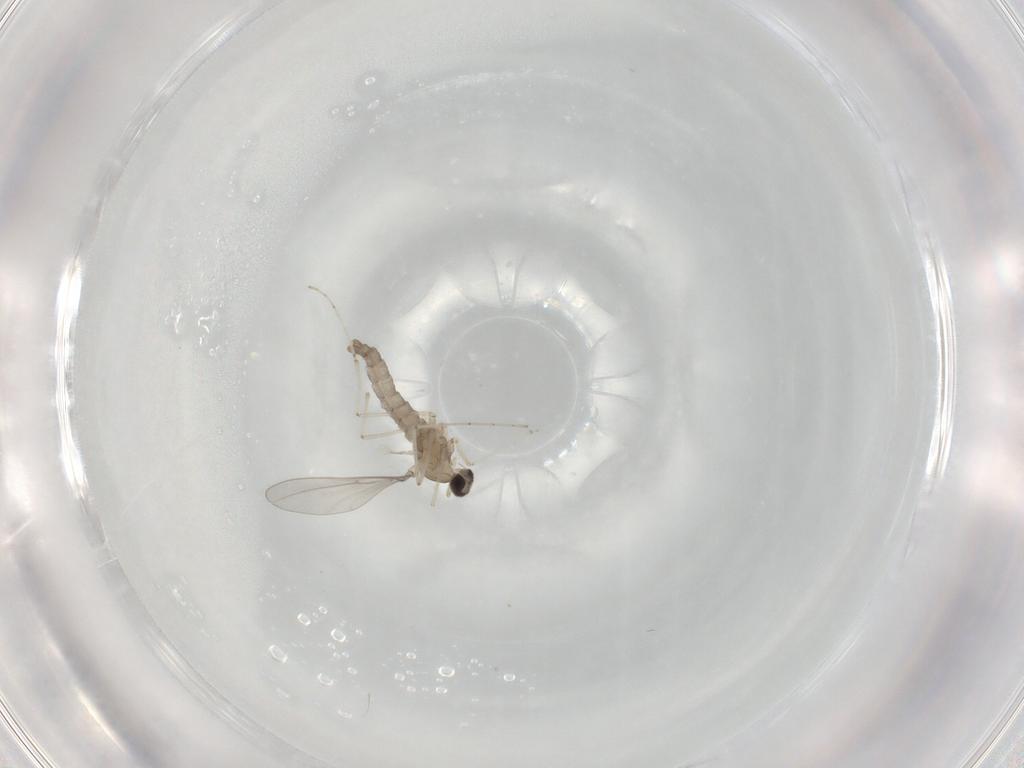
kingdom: Animalia
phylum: Arthropoda
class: Insecta
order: Diptera
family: Cecidomyiidae
